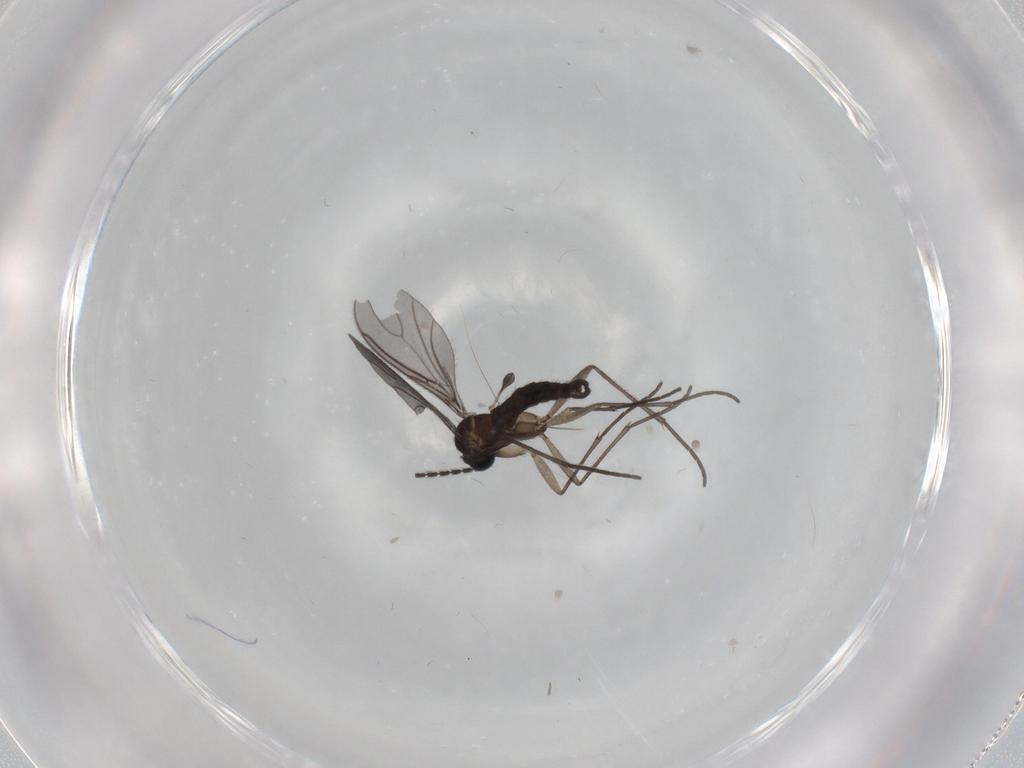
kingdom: Animalia
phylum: Arthropoda
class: Insecta
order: Diptera
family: Sciaridae
